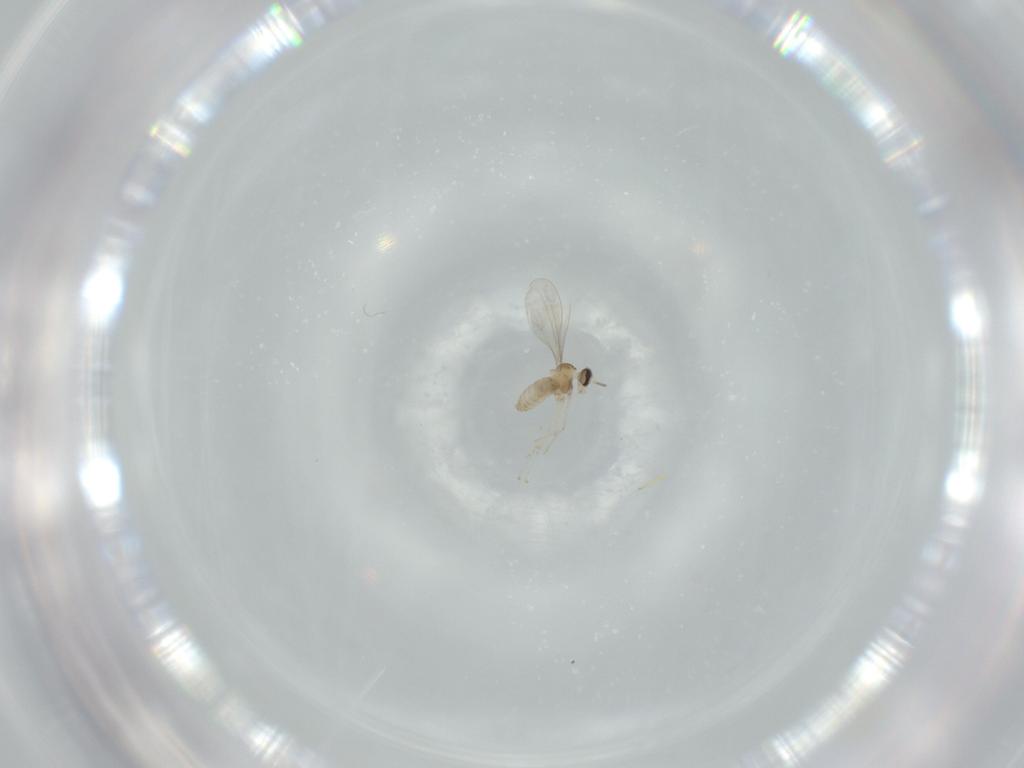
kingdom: Animalia
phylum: Arthropoda
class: Insecta
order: Diptera
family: Cecidomyiidae
